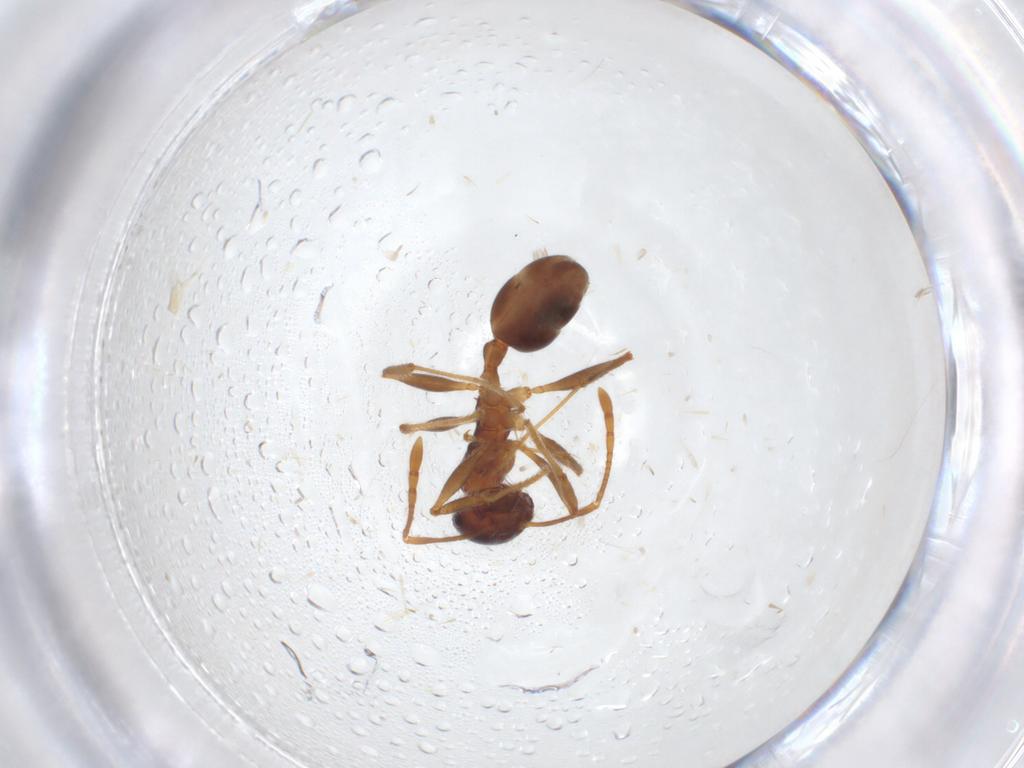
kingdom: Animalia
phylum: Arthropoda
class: Insecta
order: Hymenoptera
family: Formicidae
